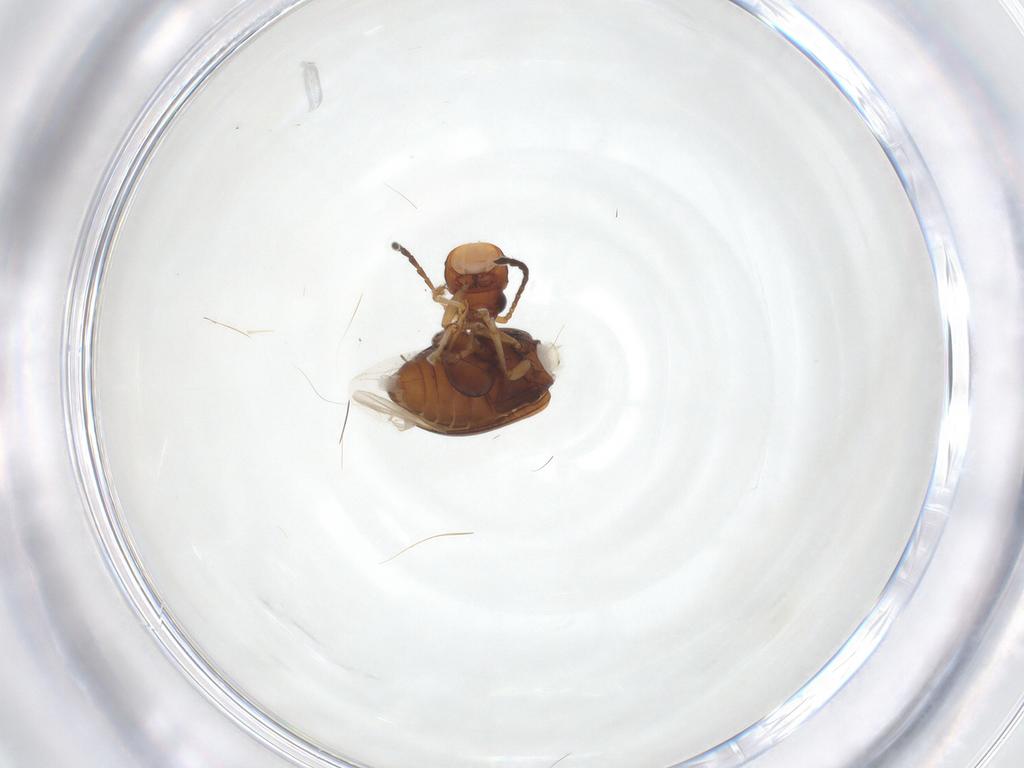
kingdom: Animalia
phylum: Arthropoda
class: Insecta
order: Coleoptera
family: Chrysomelidae
